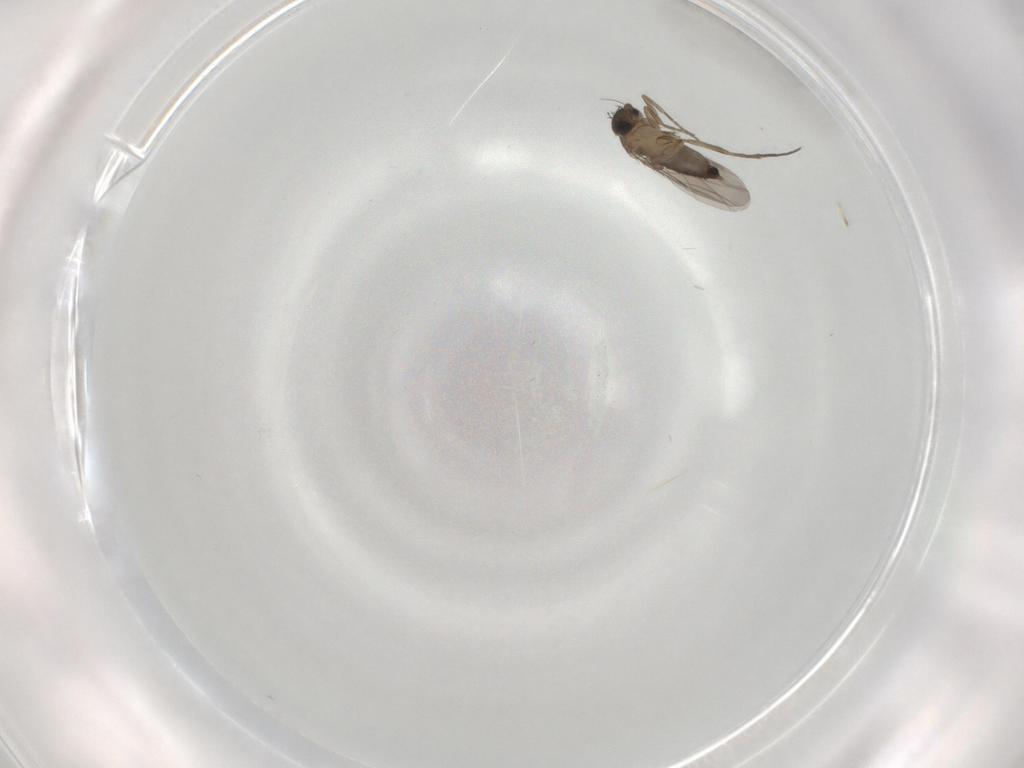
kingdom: Animalia
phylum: Arthropoda
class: Insecta
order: Diptera
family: Phoridae
